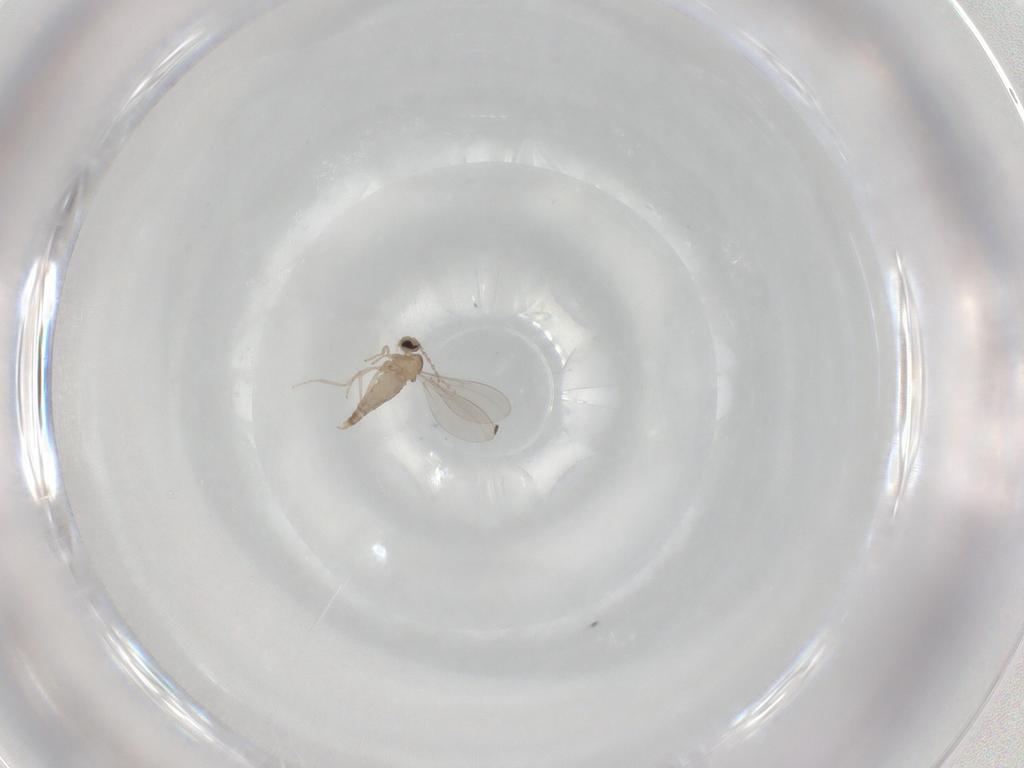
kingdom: Animalia
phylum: Arthropoda
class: Insecta
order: Diptera
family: Cecidomyiidae
